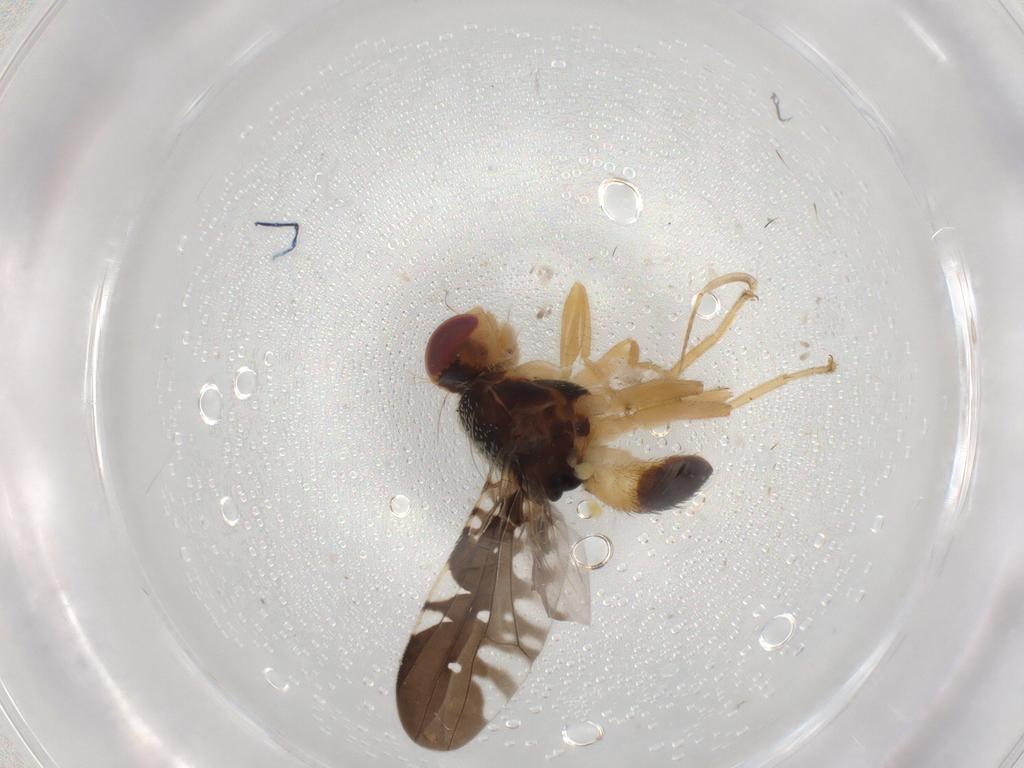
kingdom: Animalia
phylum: Arthropoda
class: Insecta
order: Diptera
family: Tephritidae
